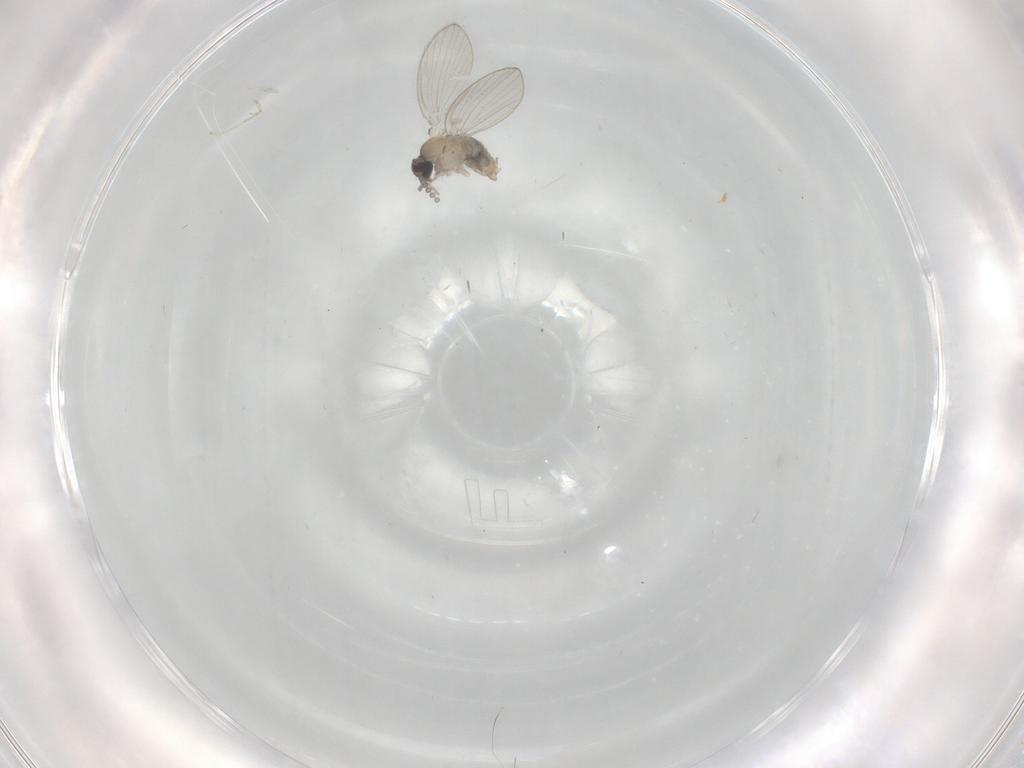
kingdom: Animalia
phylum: Arthropoda
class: Insecta
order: Diptera
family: Psychodidae
